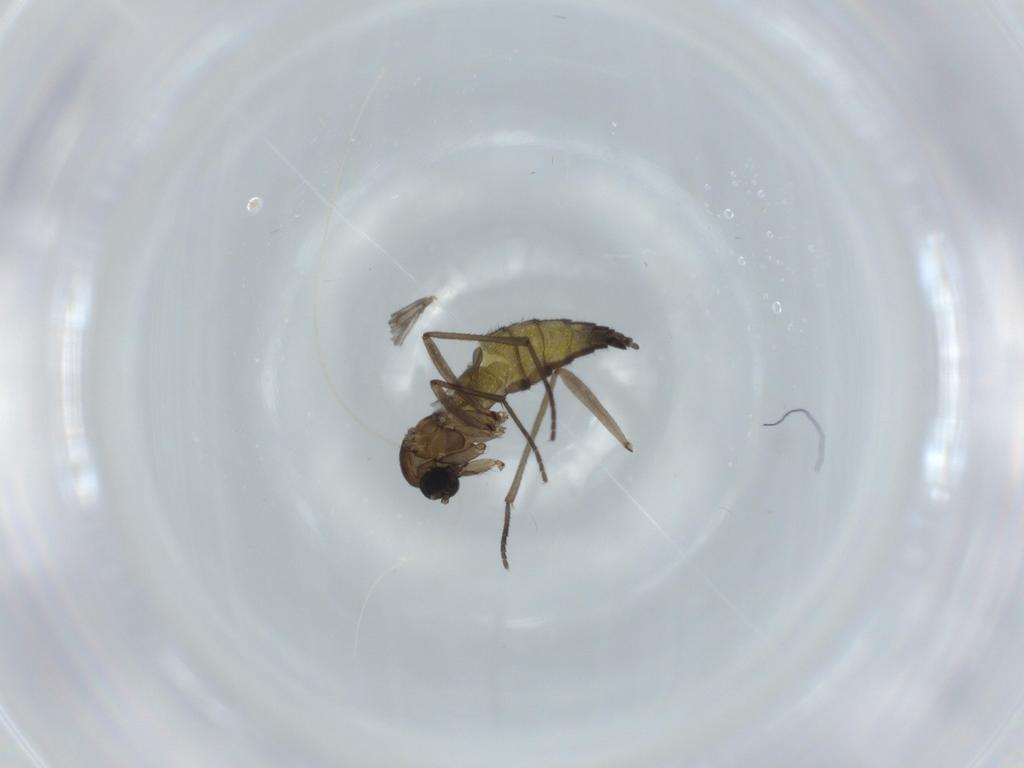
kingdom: Animalia
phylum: Arthropoda
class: Insecta
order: Diptera
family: Sciaridae
